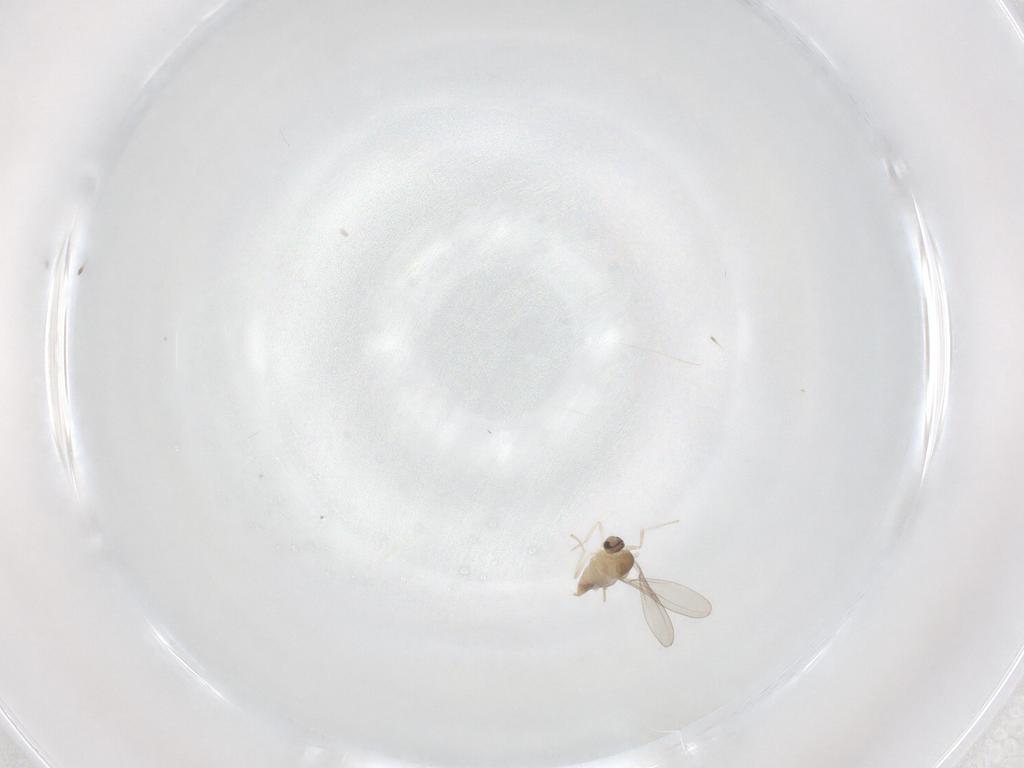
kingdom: Animalia
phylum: Arthropoda
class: Insecta
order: Diptera
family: Cecidomyiidae
